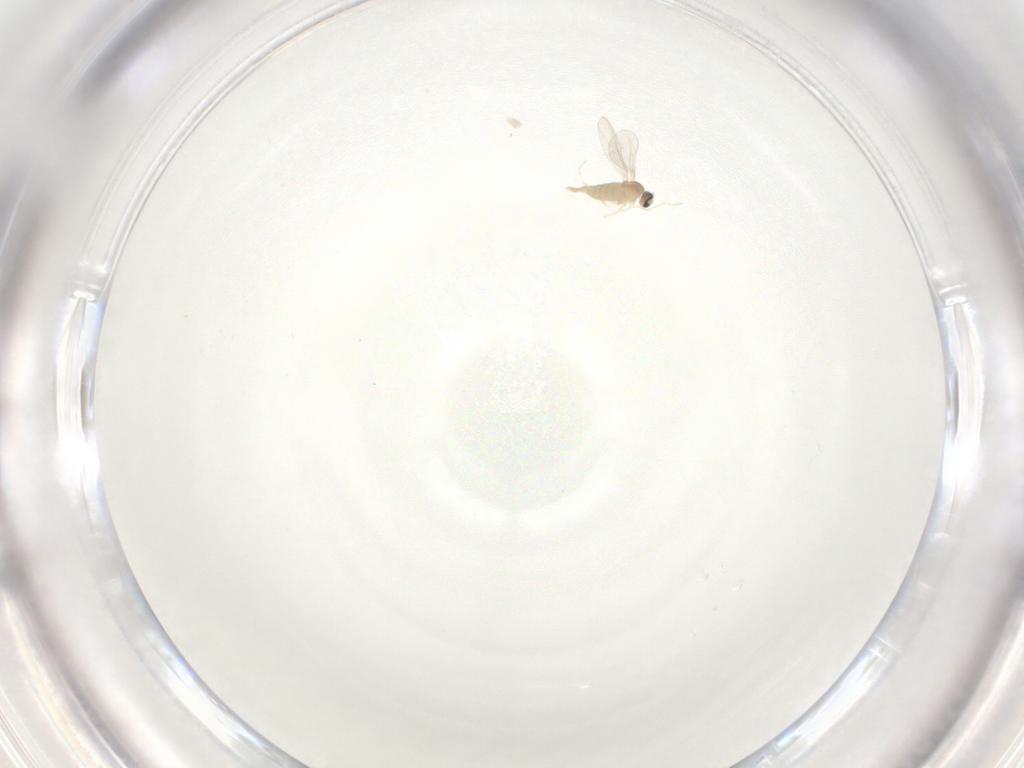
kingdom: Animalia
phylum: Arthropoda
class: Insecta
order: Diptera
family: Cecidomyiidae
